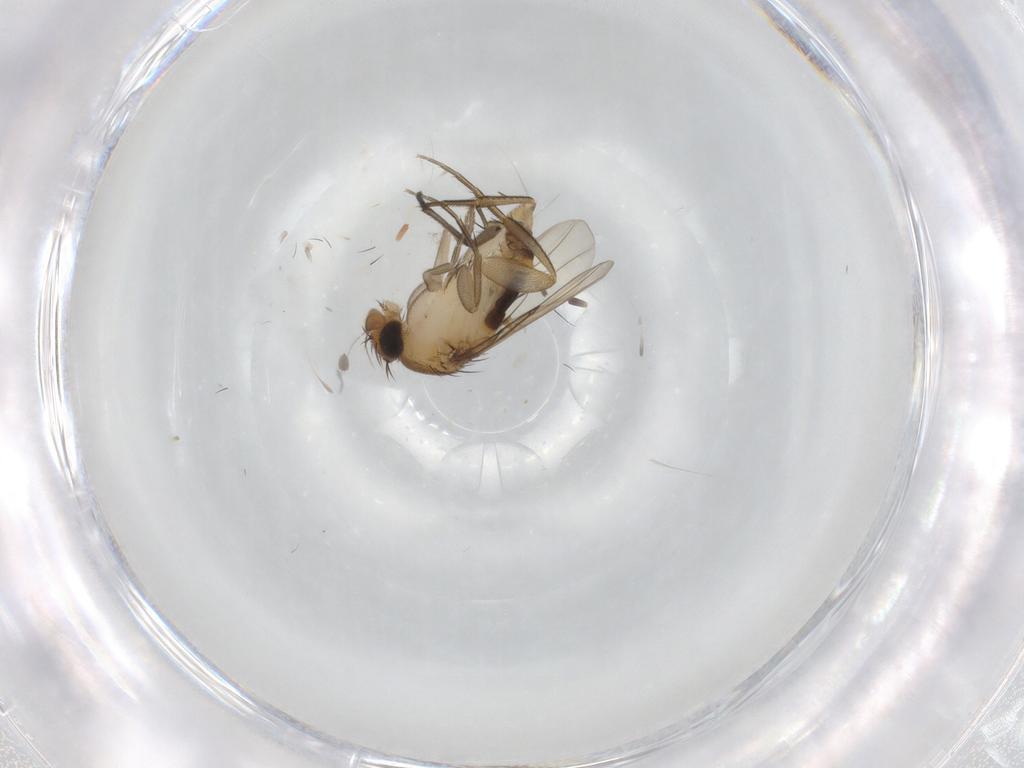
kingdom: Animalia
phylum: Arthropoda
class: Insecta
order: Diptera
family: Phoridae
